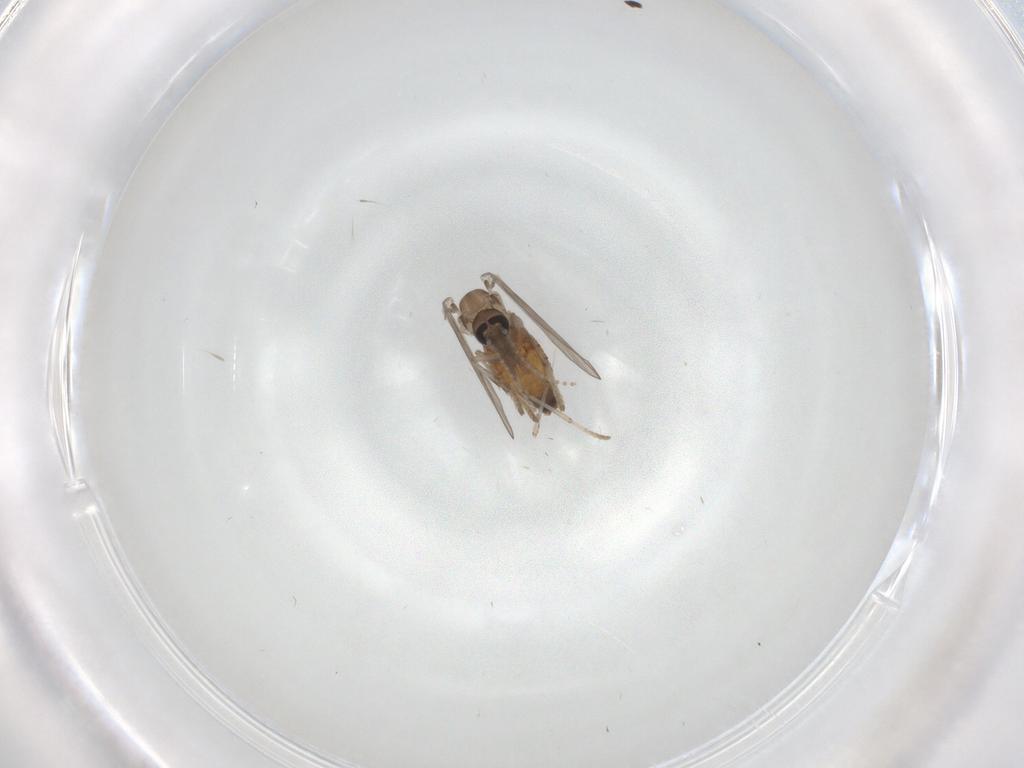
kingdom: Animalia
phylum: Arthropoda
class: Insecta
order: Diptera
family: Psychodidae
